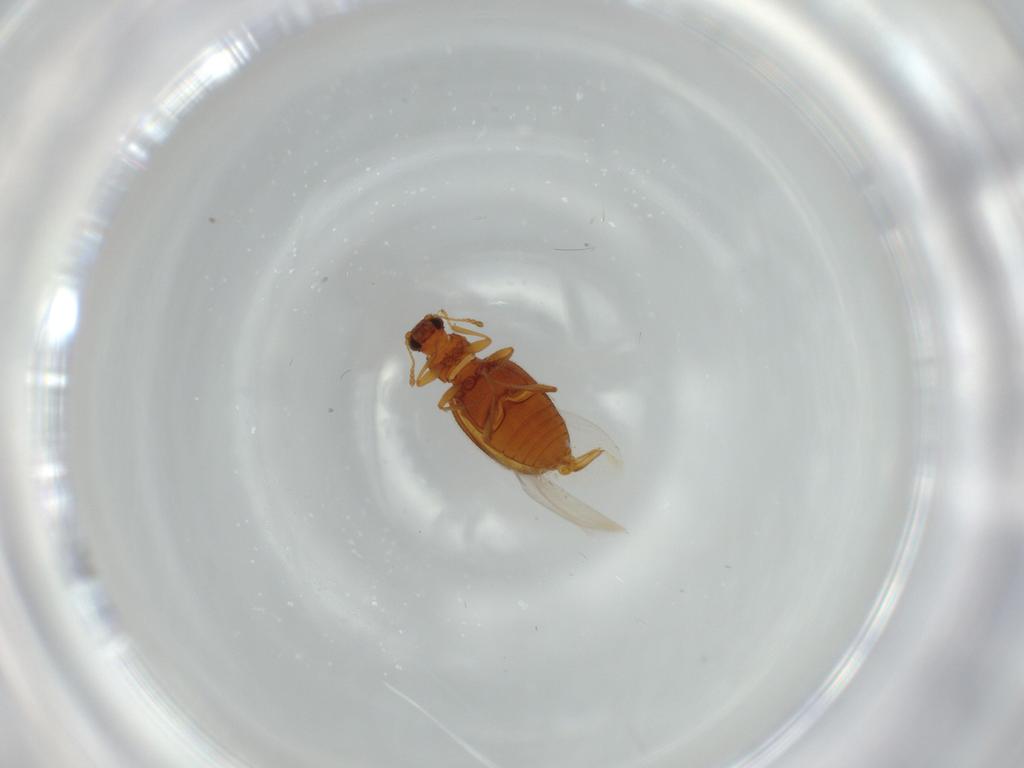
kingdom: Animalia
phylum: Arthropoda
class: Insecta
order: Coleoptera
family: Latridiidae
